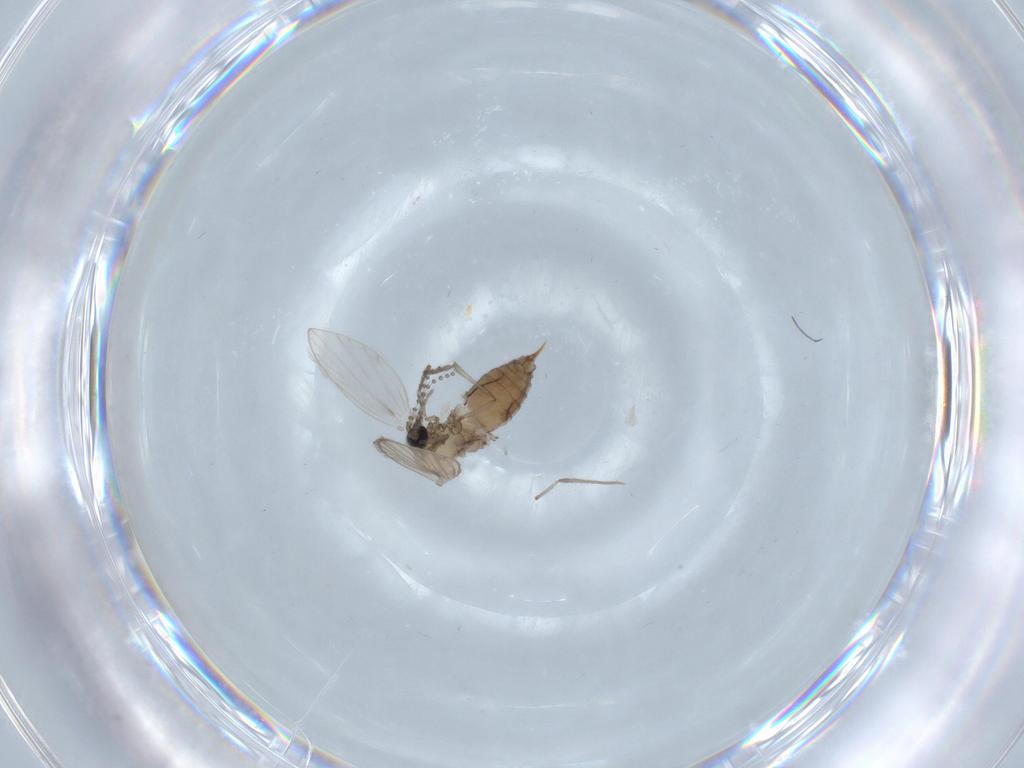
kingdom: Animalia
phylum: Arthropoda
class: Insecta
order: Diptera
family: Psychodidae
